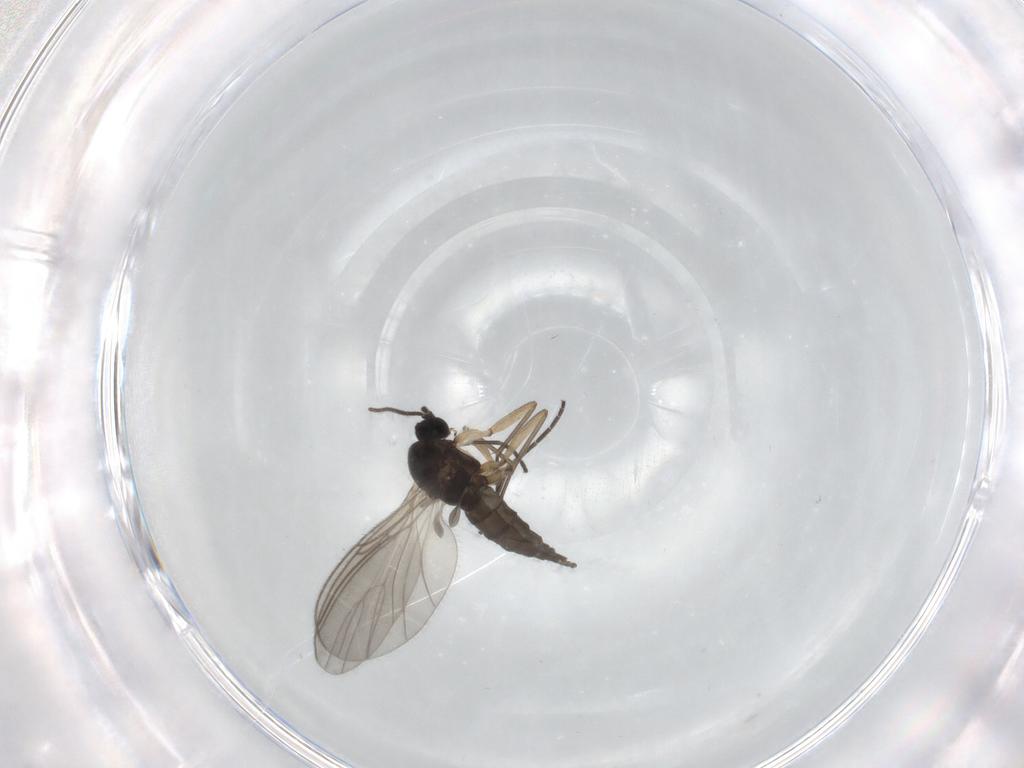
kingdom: Animalia
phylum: Arthropoda
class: Insecta
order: Diptera
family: Sciaridae
